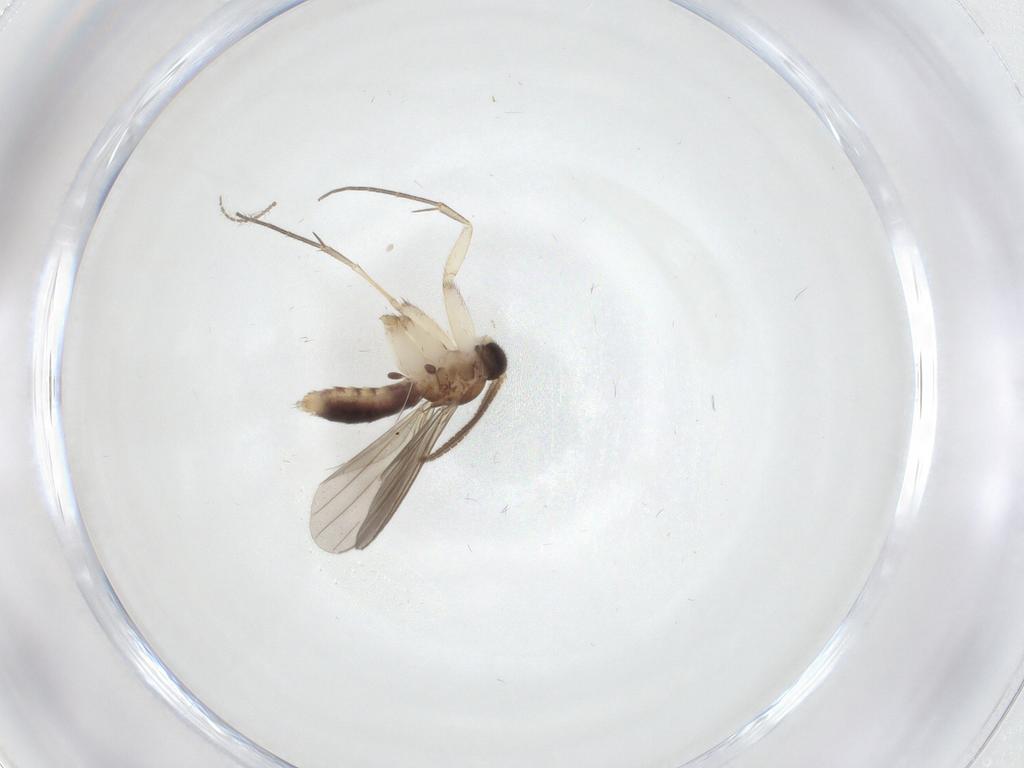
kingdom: Animalia
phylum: Arthropoda
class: Insecta
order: Diptera
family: Mycetophilidae
